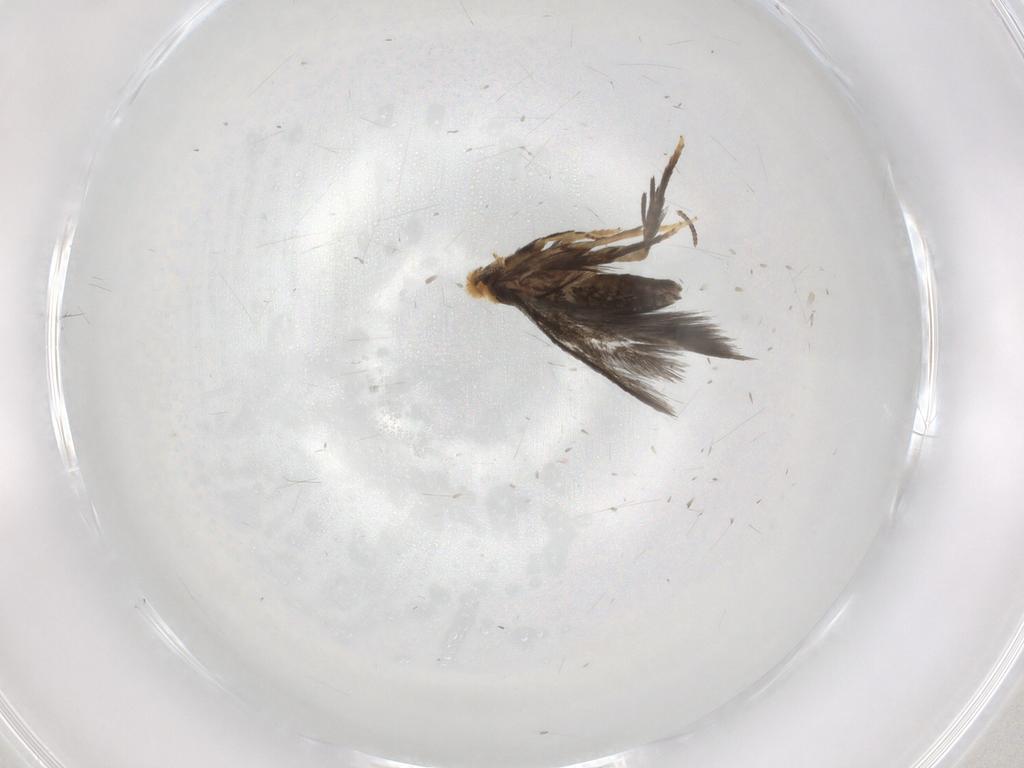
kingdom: Animalia
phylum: Arthropoda
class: Insecta
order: Lepidoptera
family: Nepticulidae
